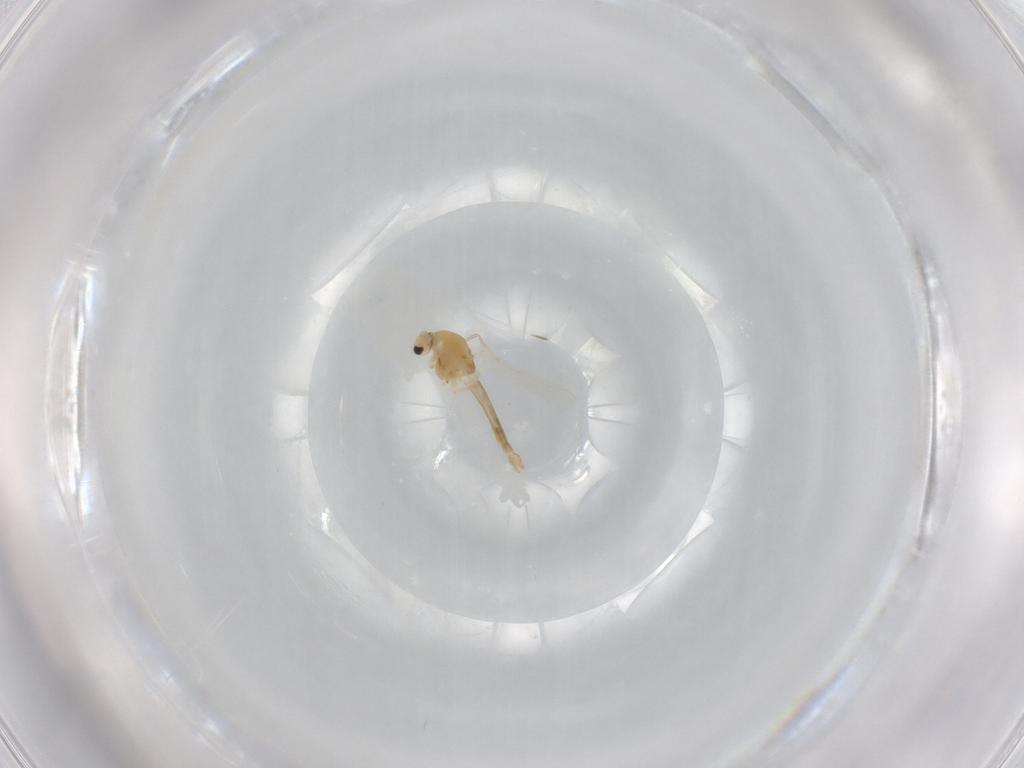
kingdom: Animalia
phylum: Arthropoda
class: Insecta
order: Diptera
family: Chironomidae
